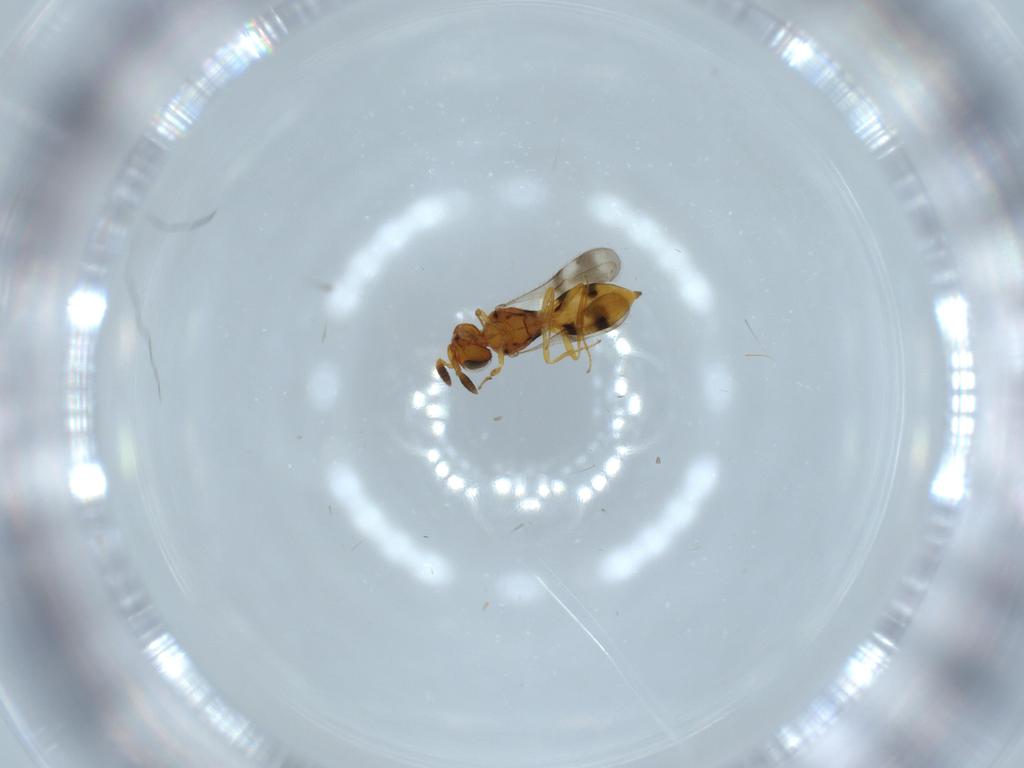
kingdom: Animalia
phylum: Arthropoda
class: Insecta
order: Hymenoptera
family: Scelionidae
